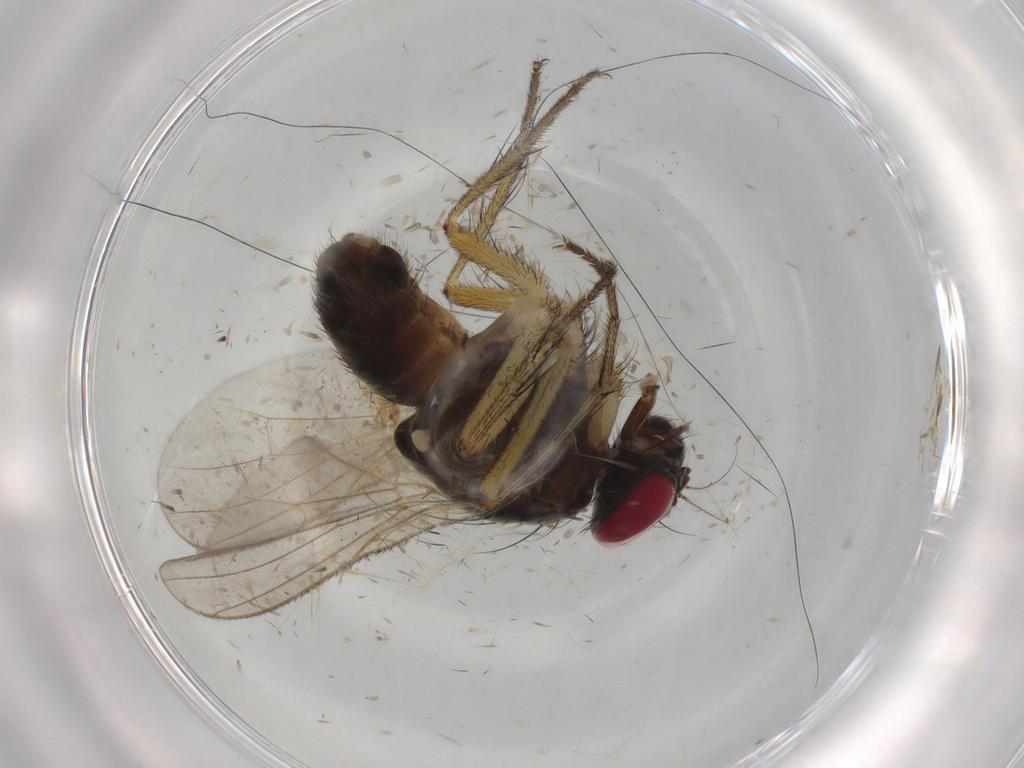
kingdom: Animalia
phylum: Arthropoda
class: Insecta
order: Diptera
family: Muscidae
